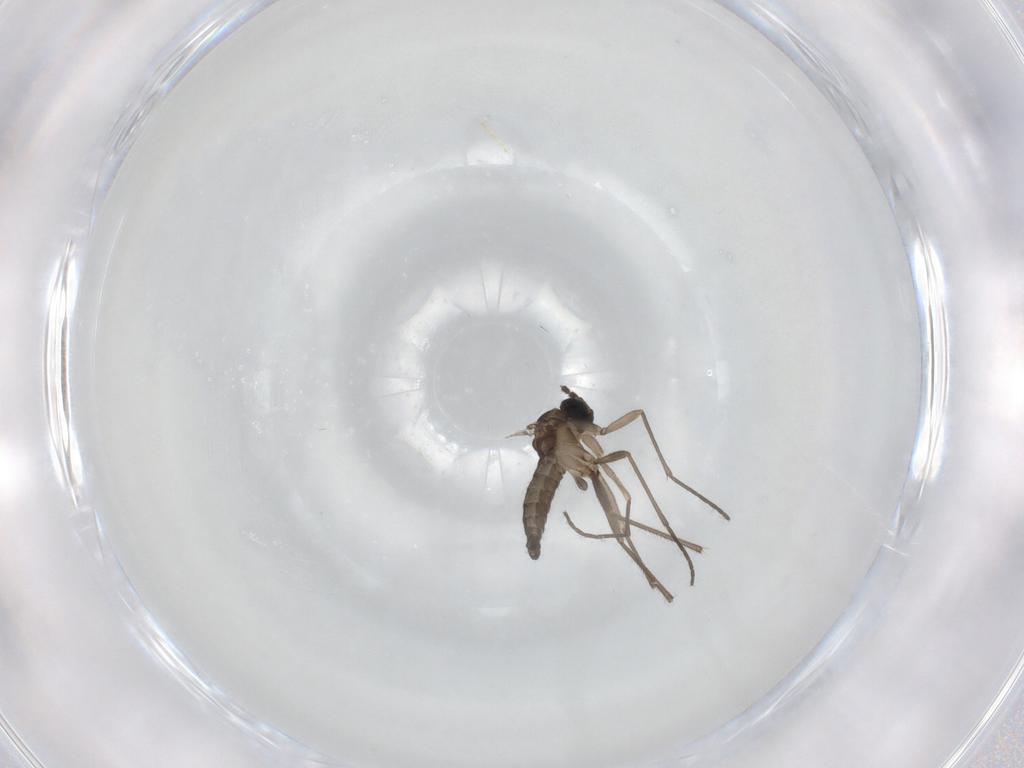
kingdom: Animalia
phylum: Arthropoda
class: Insecta
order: Diptera
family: Sciaridae
